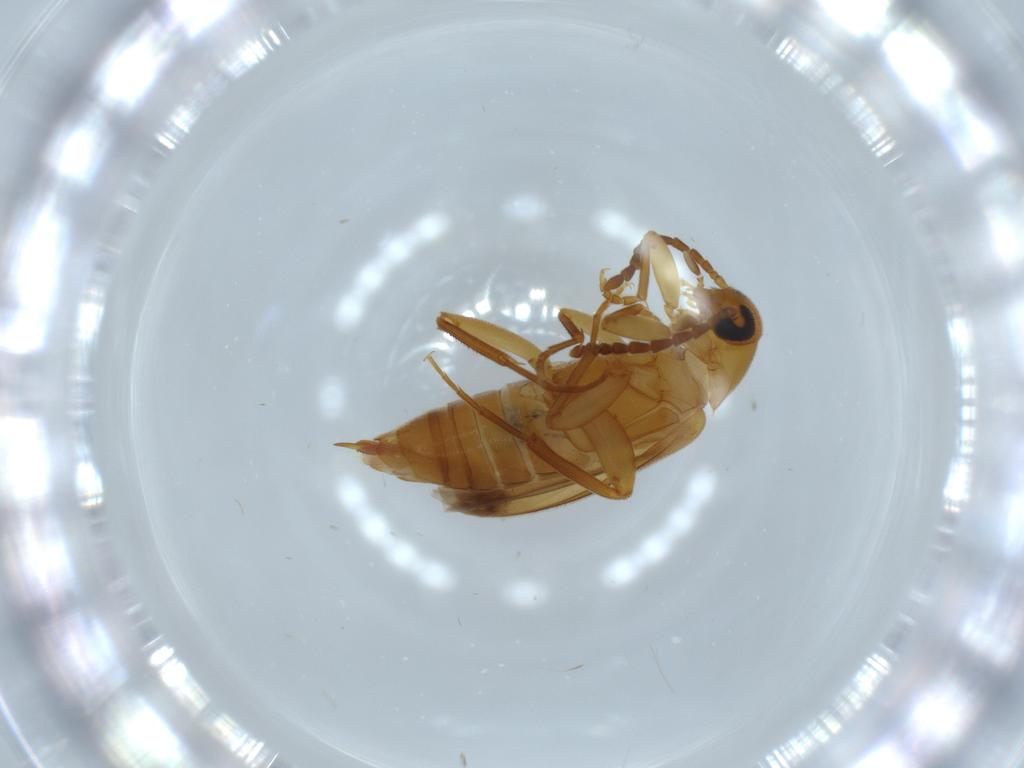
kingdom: Animalia
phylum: Arthropoda
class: Insecta
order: Coleoptera
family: Scraptiidae
